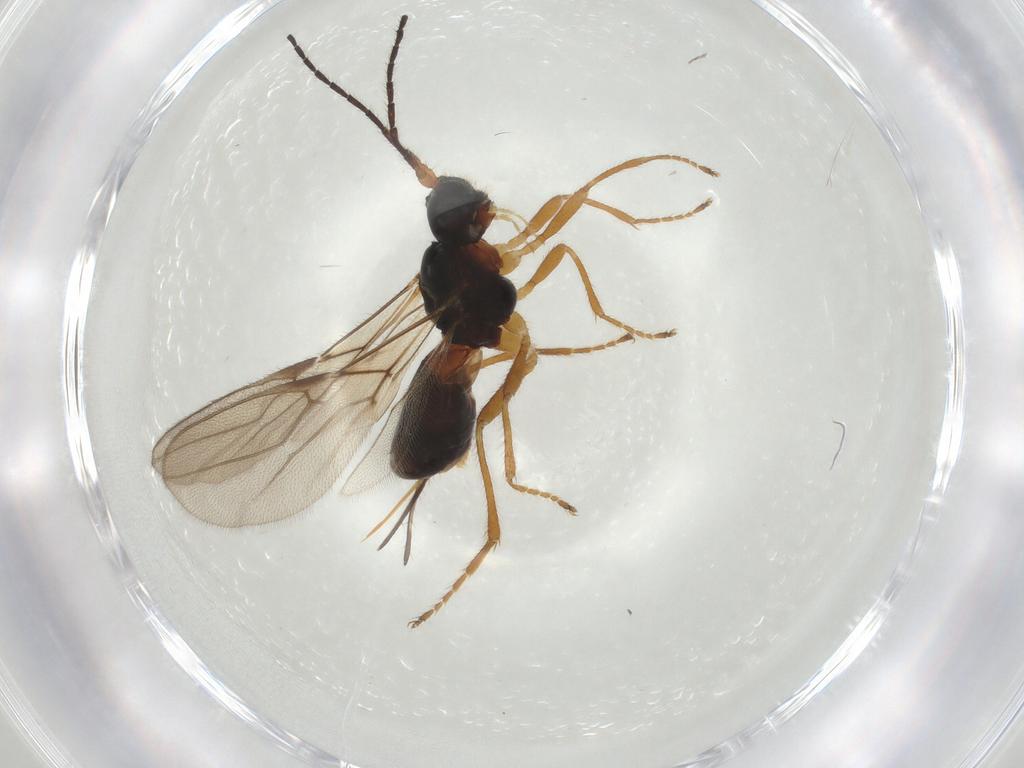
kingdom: Animalia
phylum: Arthropoda
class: Insecta
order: Hymenoptera
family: Braconidae
